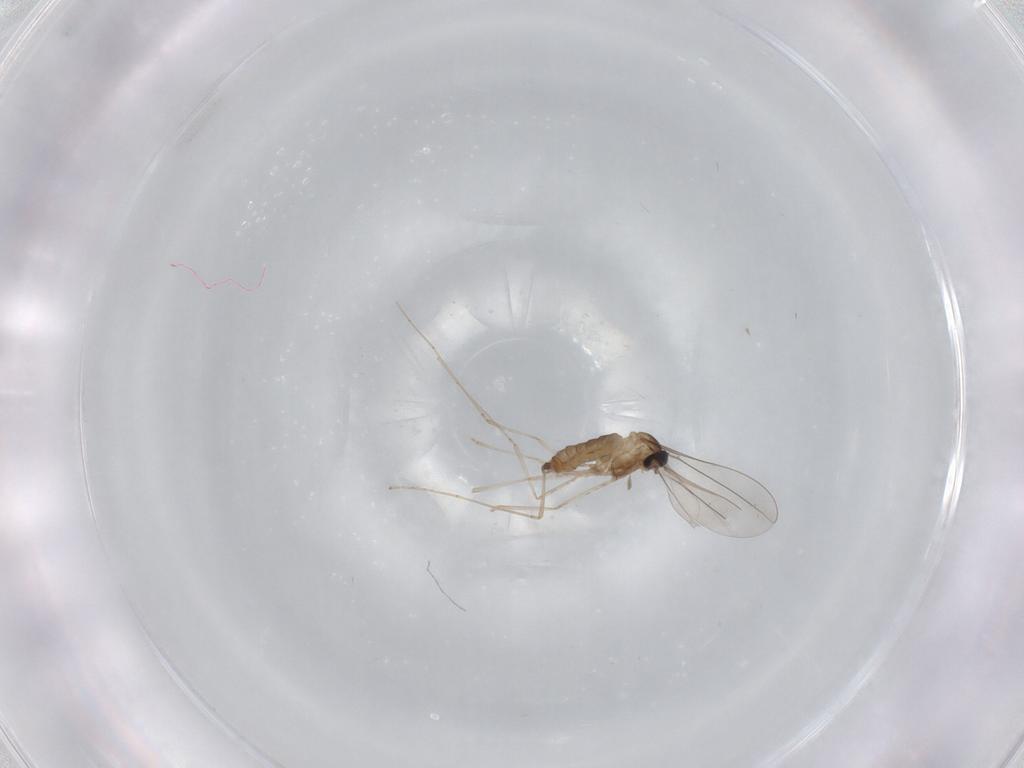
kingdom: Animalia
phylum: Arthropoda
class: Insecta
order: Diptera
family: Cecidomyiidae
